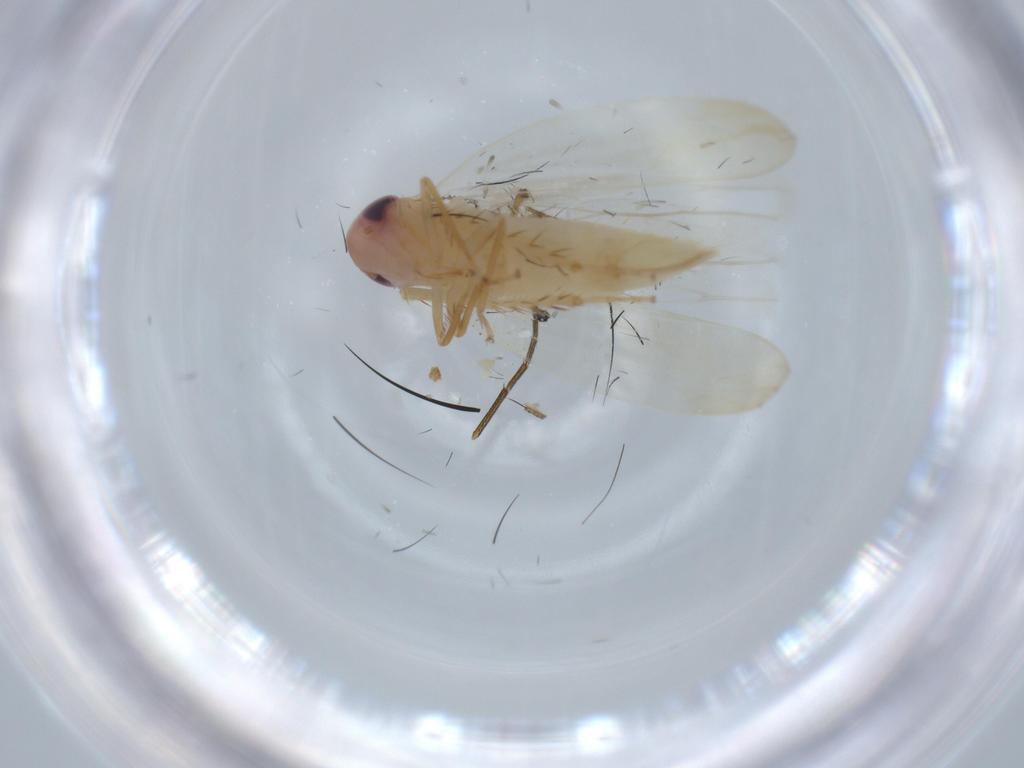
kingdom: Animalia
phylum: Arthropoda
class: Insecta
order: Hemiptera
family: Cicadellidae
